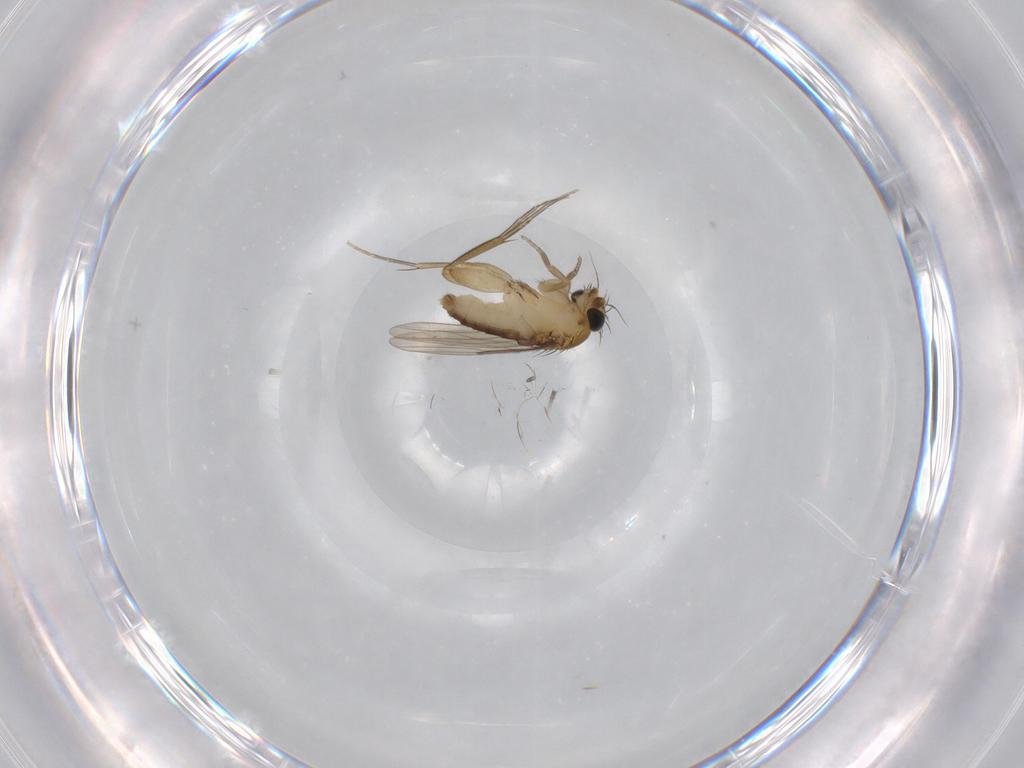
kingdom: Animalia
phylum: Arthropoda
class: Insecta
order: Diptera
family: Phoridae
